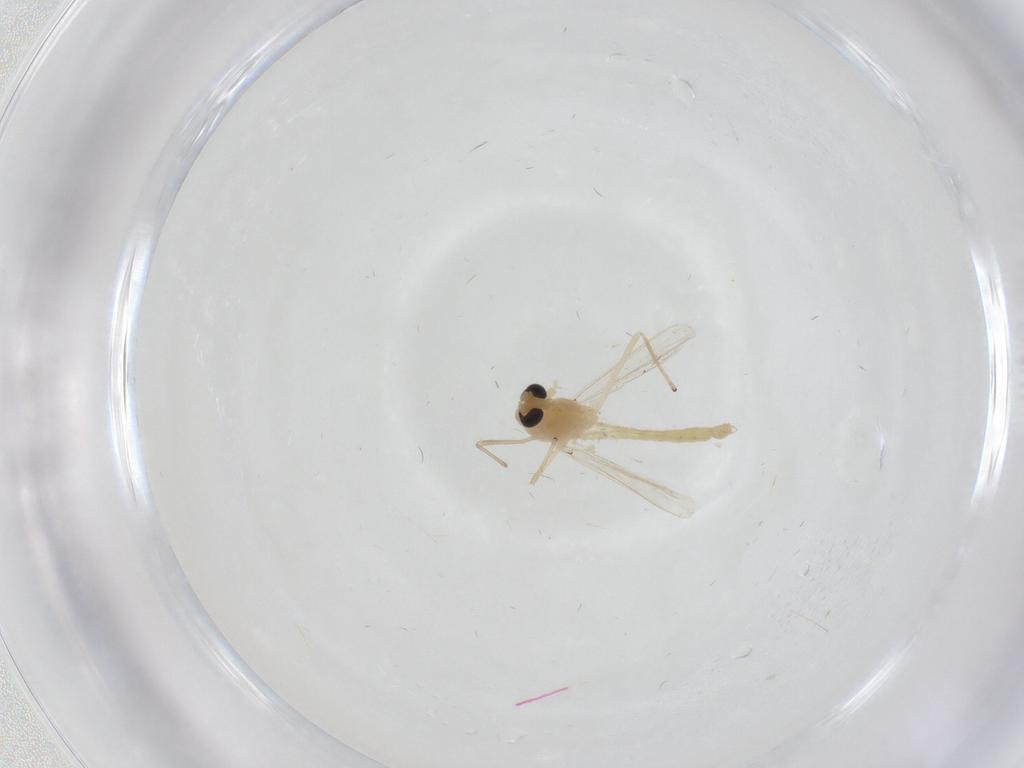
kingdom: Animalia
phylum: Arthropoda
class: Insecta
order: Diptera
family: Chironomidae
